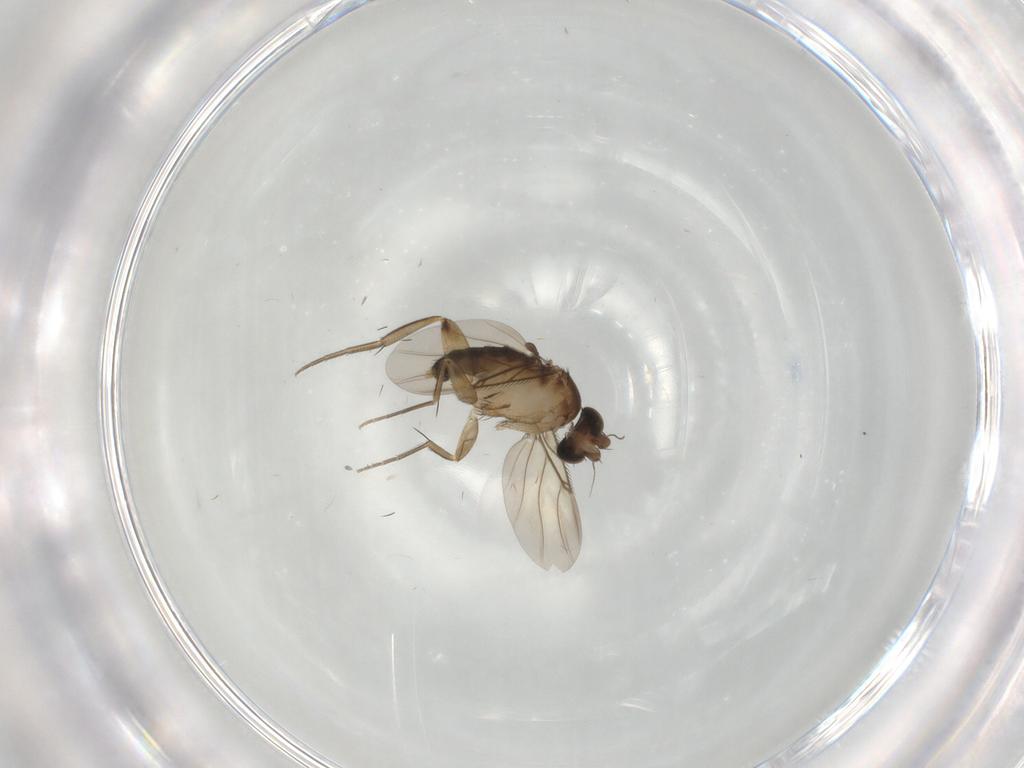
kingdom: Animalia
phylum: Arthropoda
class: Insecta
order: Diptera
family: Phoridae
